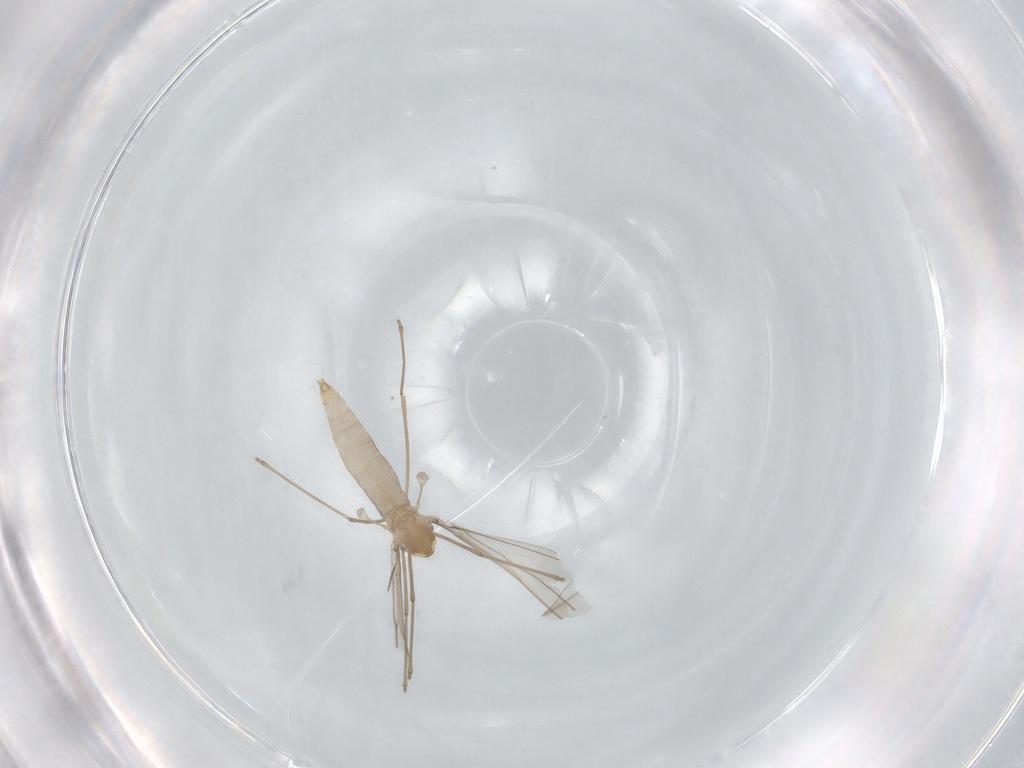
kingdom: Animalia
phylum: Arthropoda
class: Insecta
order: Diptera
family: Cecidomyiidae
